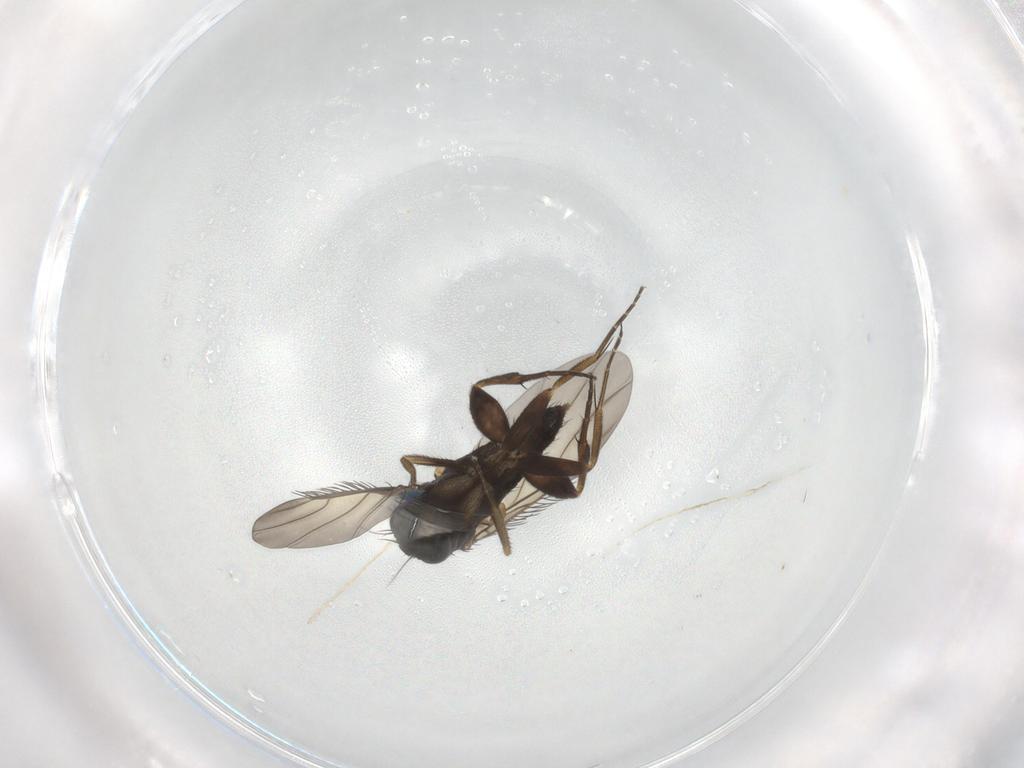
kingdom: Animalia
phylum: Arthropoda
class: Insecta
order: Diptera
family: Phoridae
